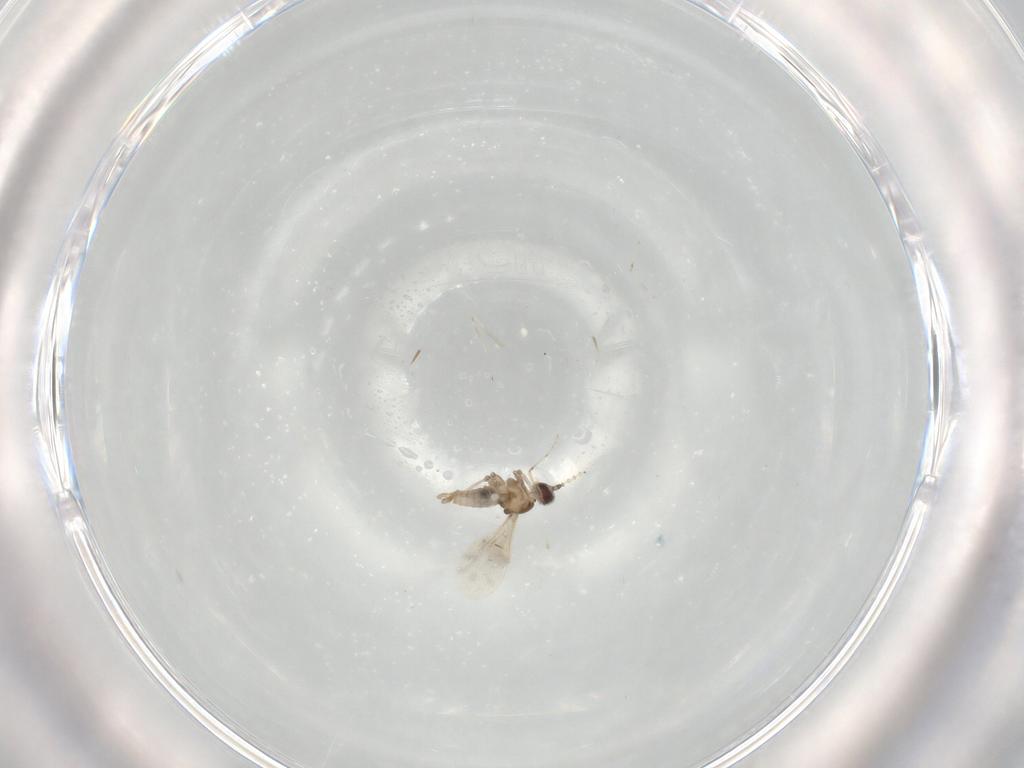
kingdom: Animalia
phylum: Arthropoda
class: Insecta
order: Diptera
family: Cecidomyiidae
